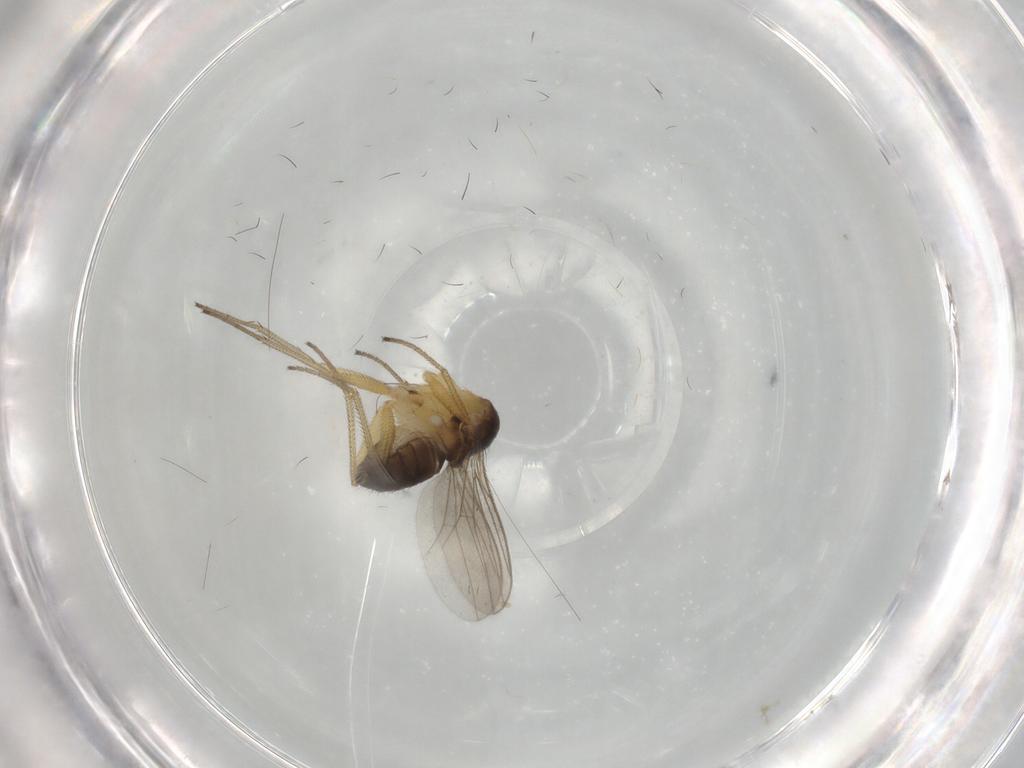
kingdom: Animalia
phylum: Arthropoda
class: Insecta
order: Diptera
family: Dolichopodidae
